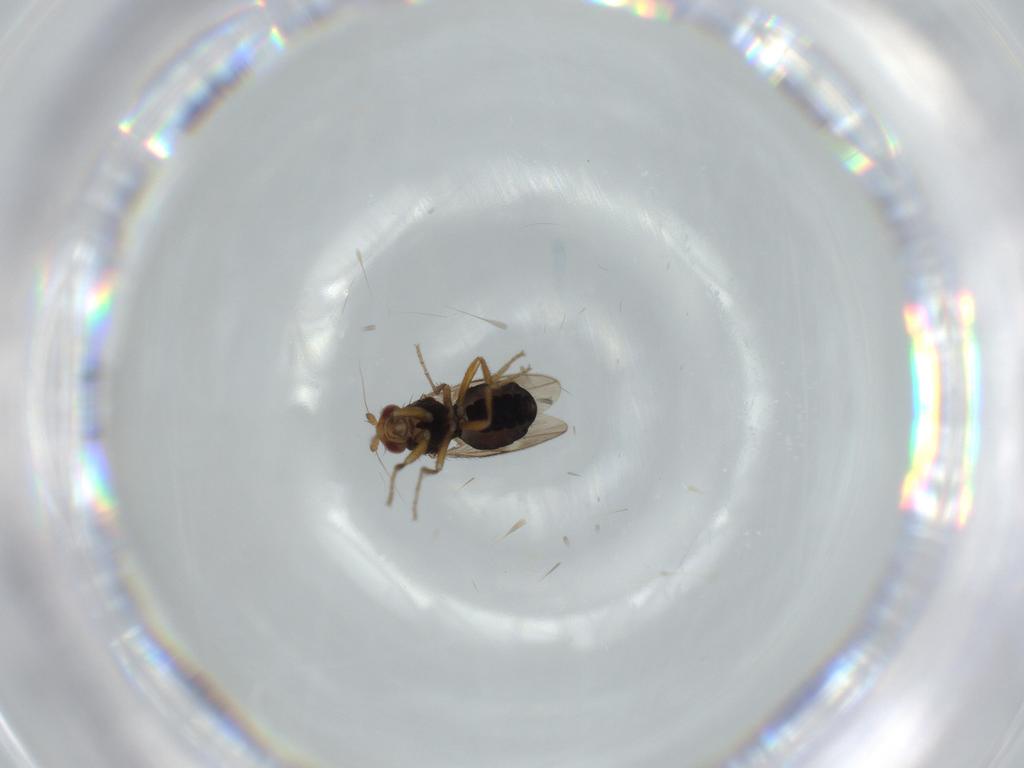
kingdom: Animalia
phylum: Arthropoda
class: Insecta
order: Diptera
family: Sphaeroceridae
